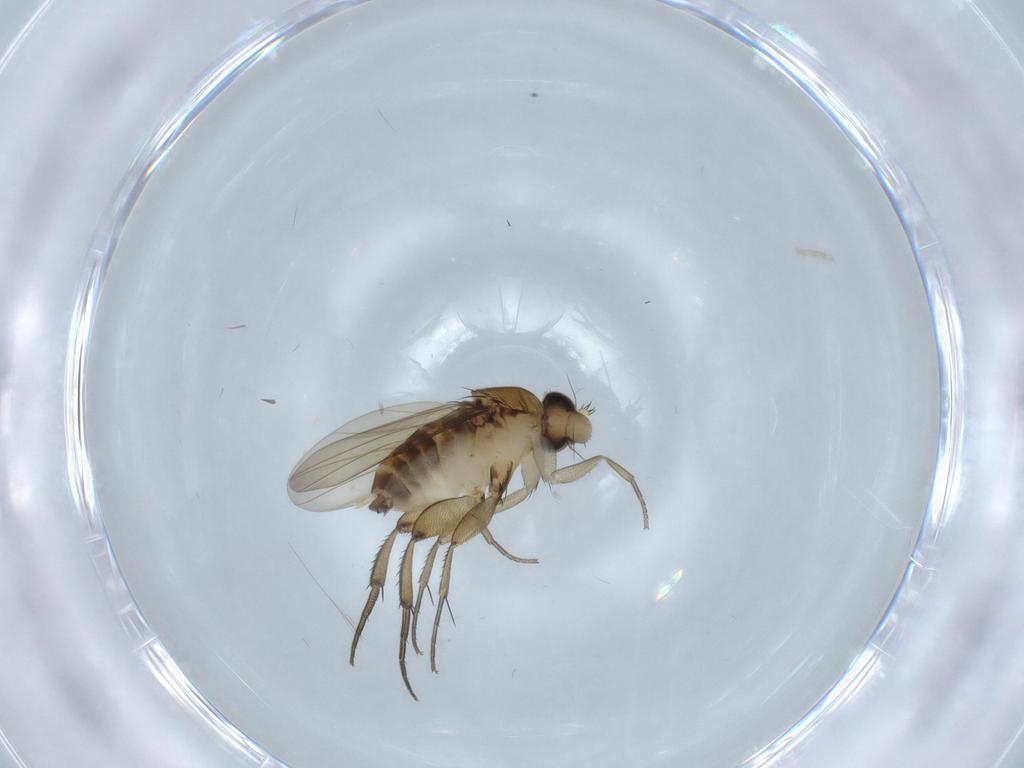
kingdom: Animalia
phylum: Arthropoda
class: Insecta
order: Diptera
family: Phoridae
